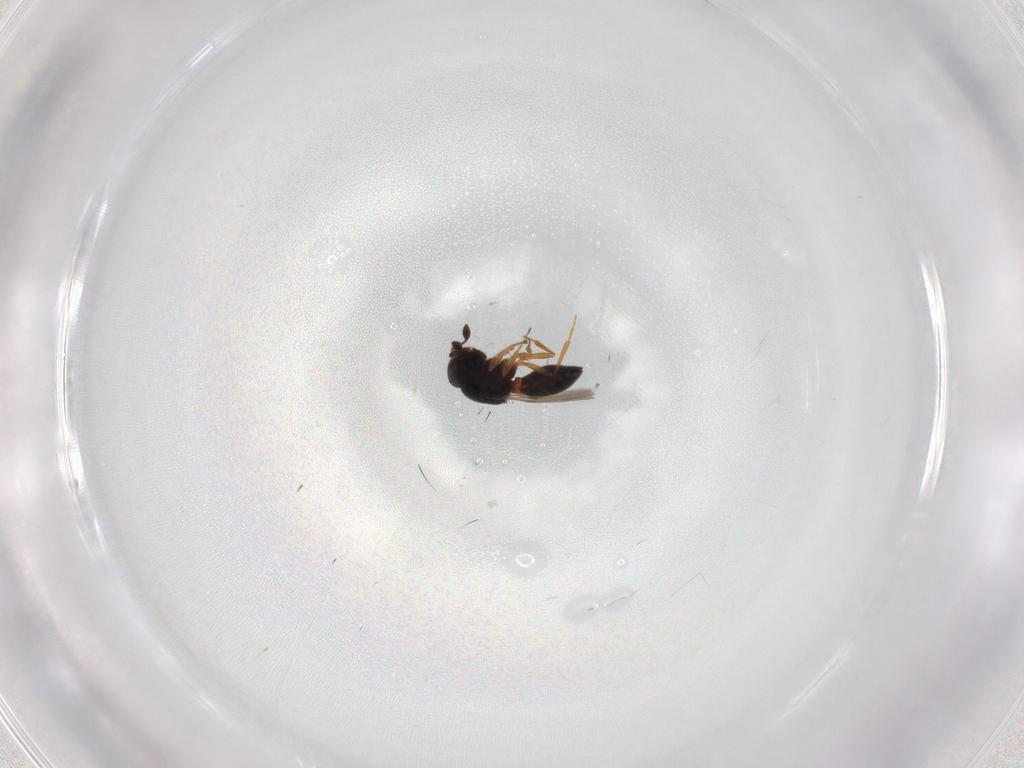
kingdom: Animalia
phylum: Arthropoda
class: Insecta
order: Hymenoptera
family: Scelionidae
